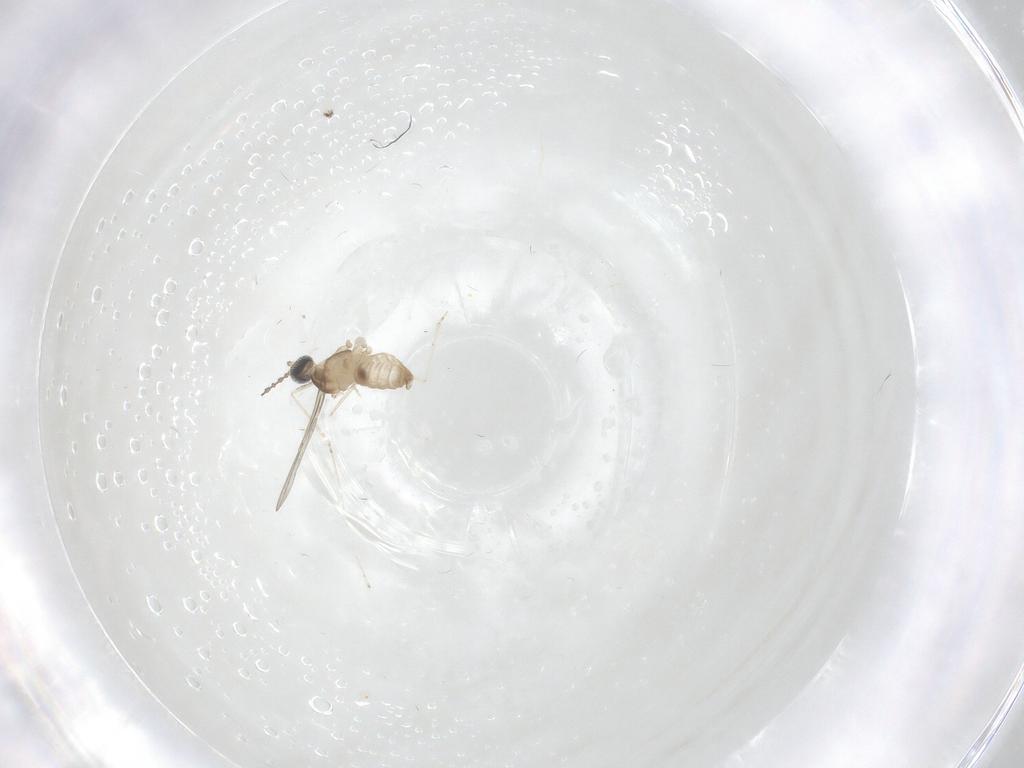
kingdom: Animalia
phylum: Arthropoda
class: Insecta
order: Diptera
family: Cecidomyiidae
